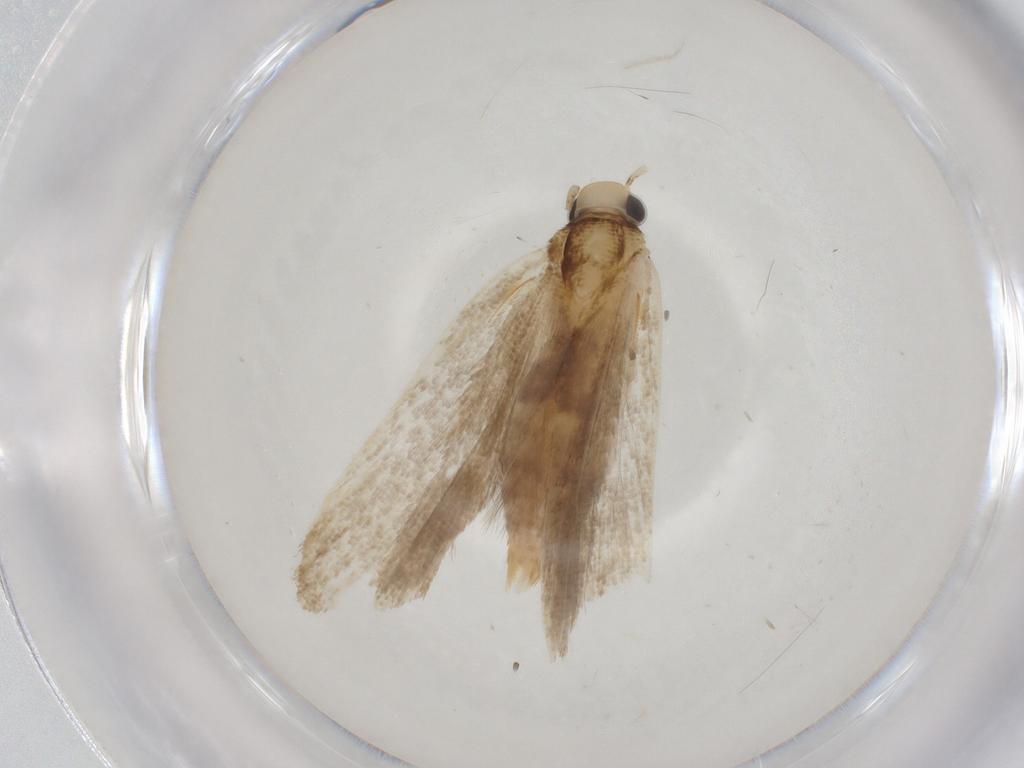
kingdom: Animalia
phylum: Arthropoda
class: Insecta
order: Lepidoptera
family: Gelechiidae
